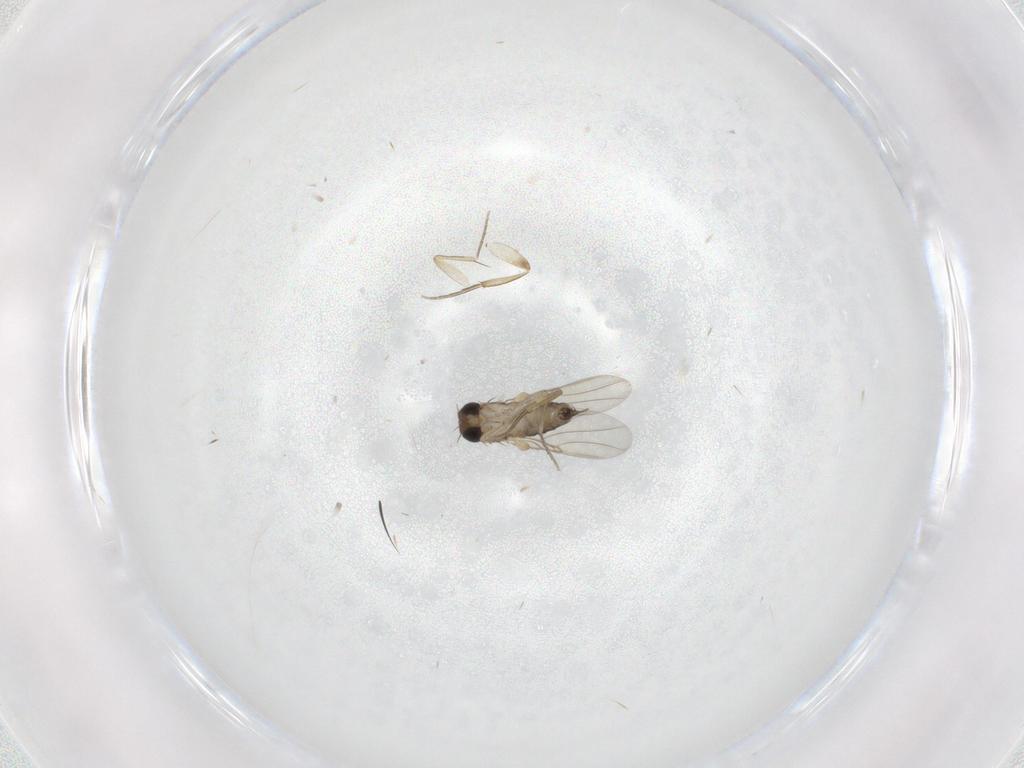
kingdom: Animalia
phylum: Arthropoda
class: Insecta
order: Diptera
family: Phoridae
